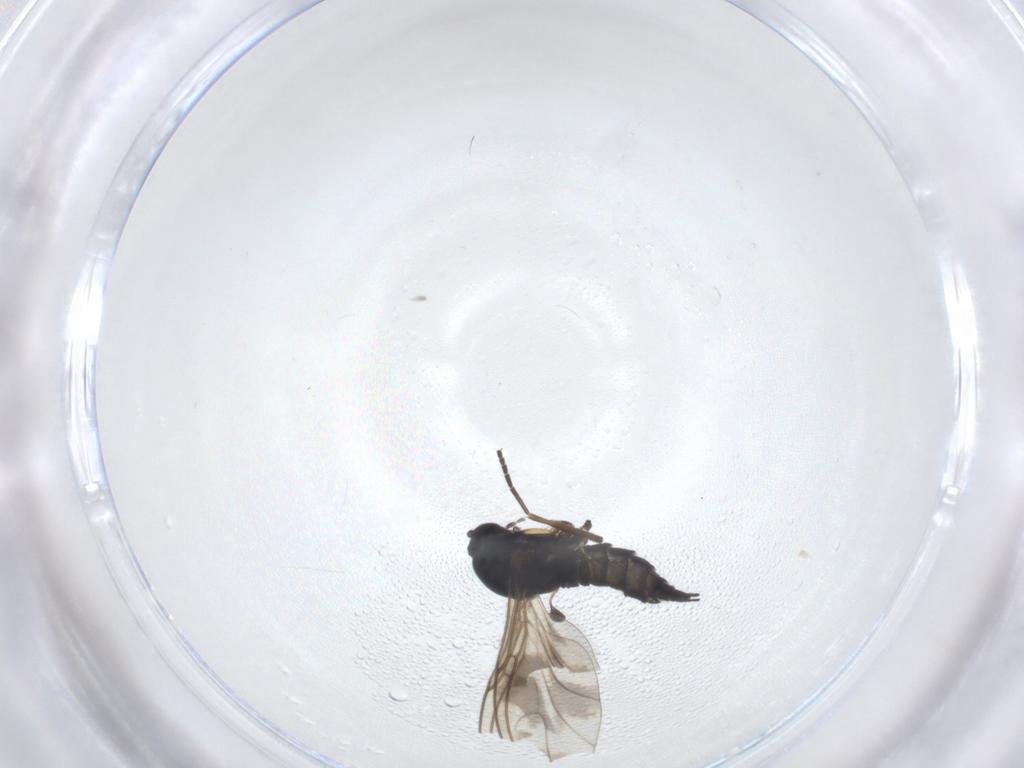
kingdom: Animalia
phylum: Arthropoda
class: Insecta
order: Diptera
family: Sciaridae
